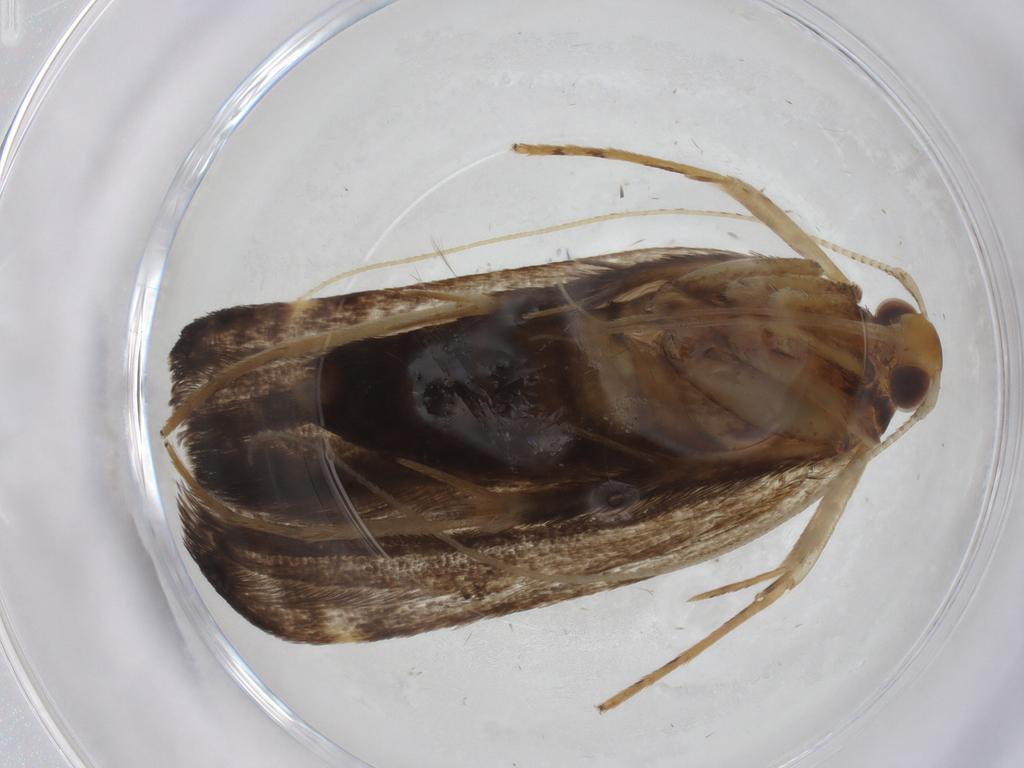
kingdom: Animalia
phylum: Arthropoda
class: Insecta
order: Lepidoptera
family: Lecithoceridae
